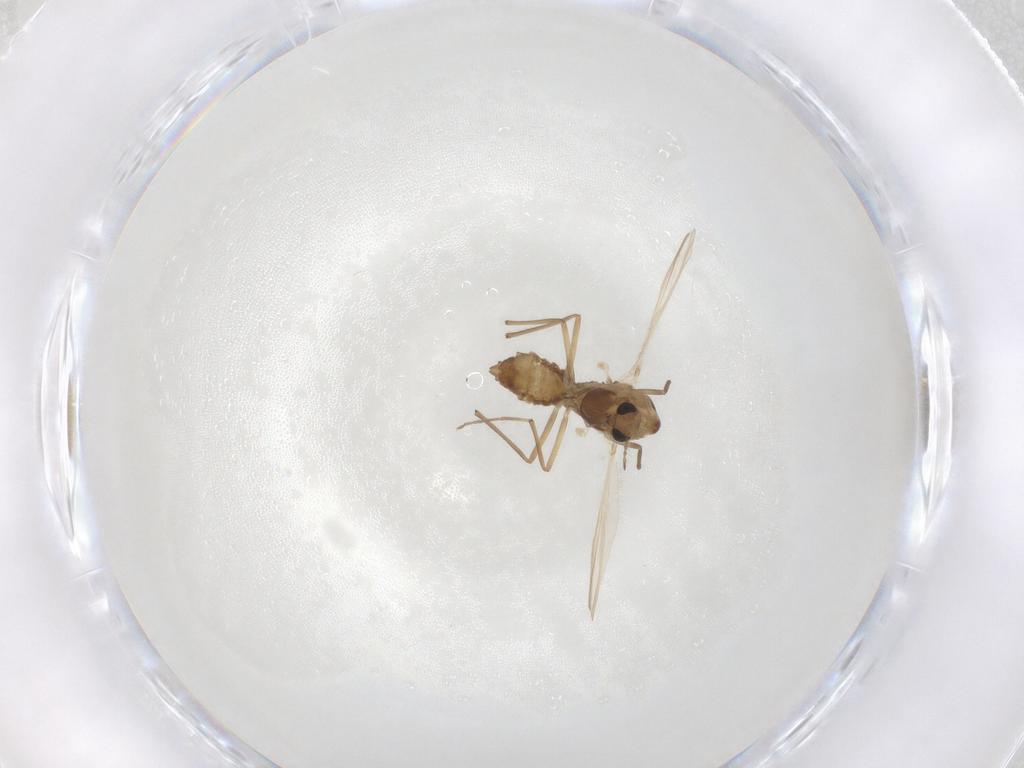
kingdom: Animalia
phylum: Arthropoda
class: Insecta
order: Diptera
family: Chironomidae
